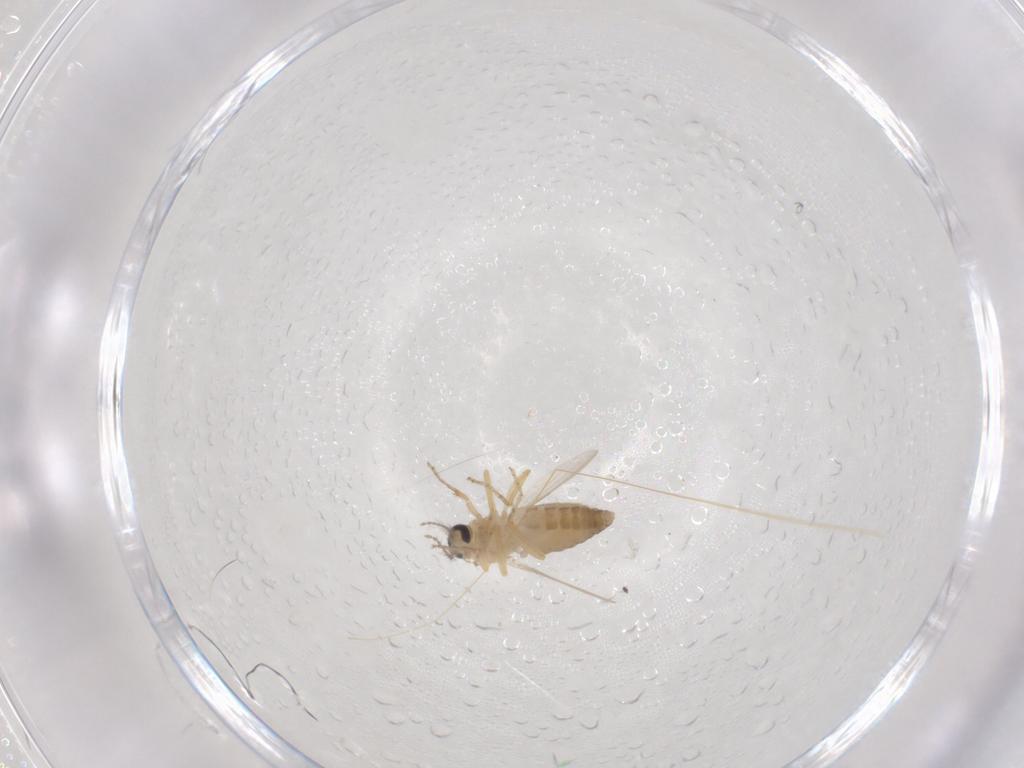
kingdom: Animalia
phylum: Arthropoda
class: Insecta
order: Diptera
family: Ceratopogonidae
